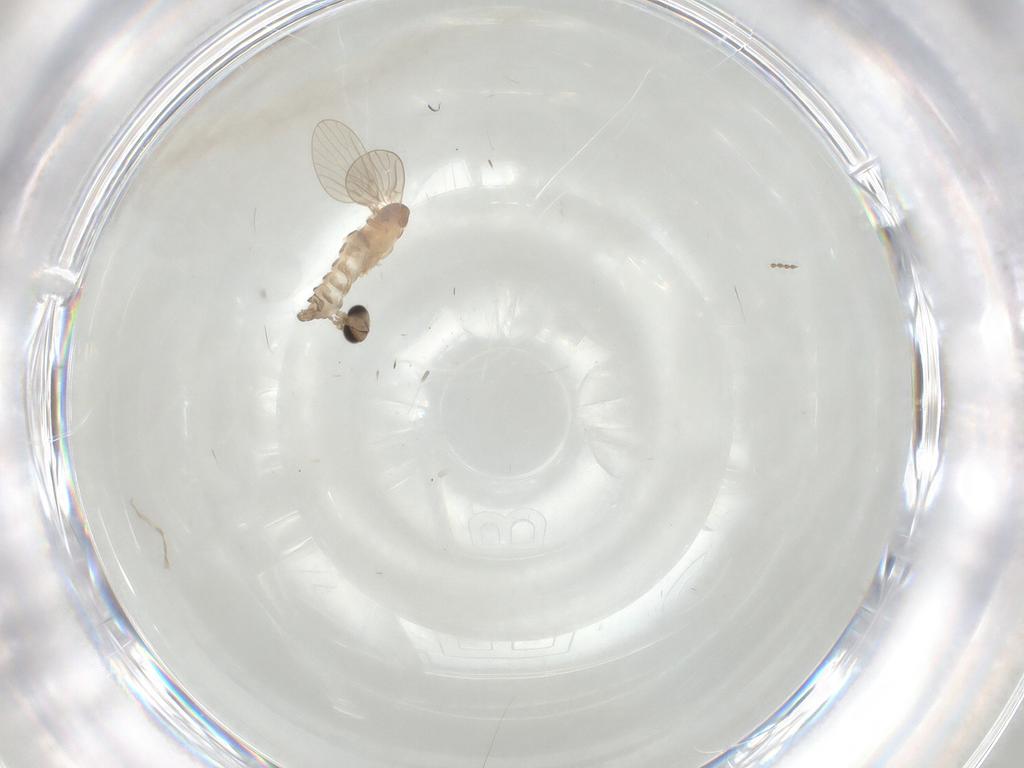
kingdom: Animalia
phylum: Arthropoda
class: Insecta
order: Diptera
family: Psychodidae
